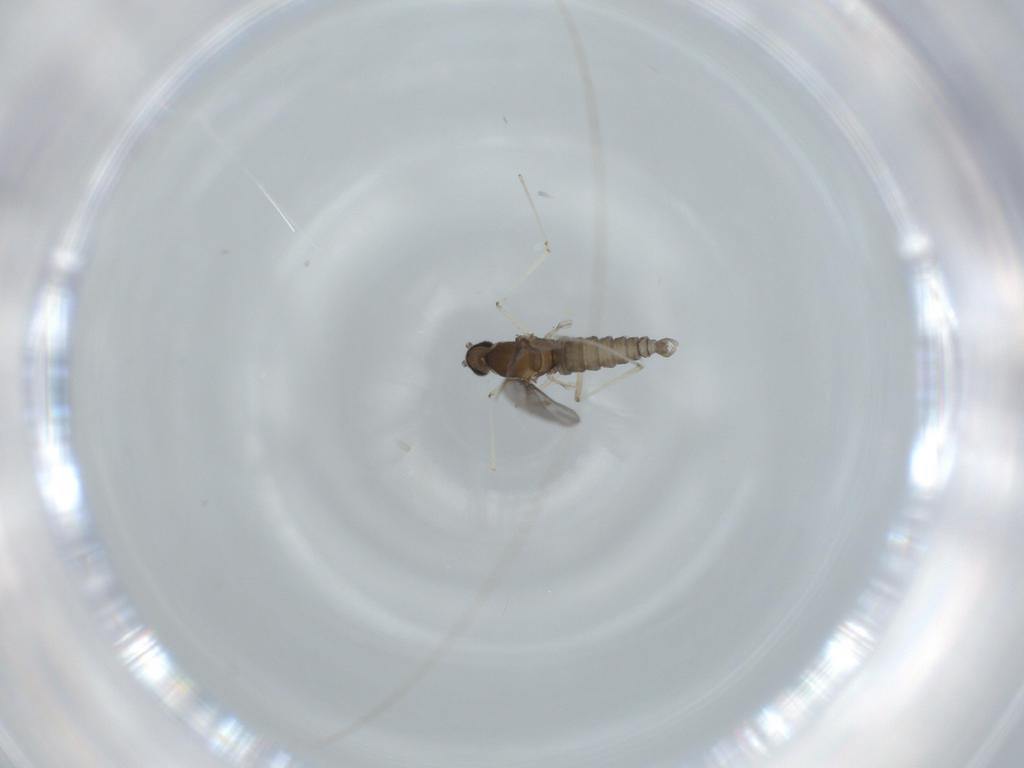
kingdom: Animalia
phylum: Arthropoda
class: Insecta
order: Diptera
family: Cecidomyiidae
